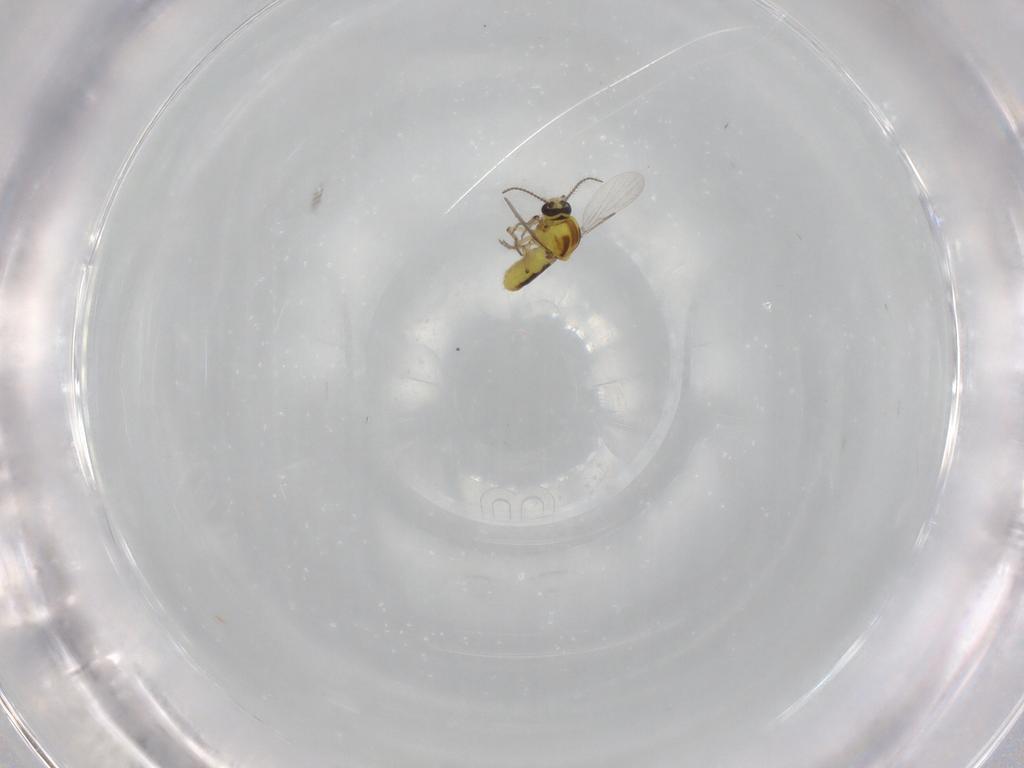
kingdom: Animalia
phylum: Arthropoda
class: Insecta
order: Diptera
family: Ceratopogonidae
